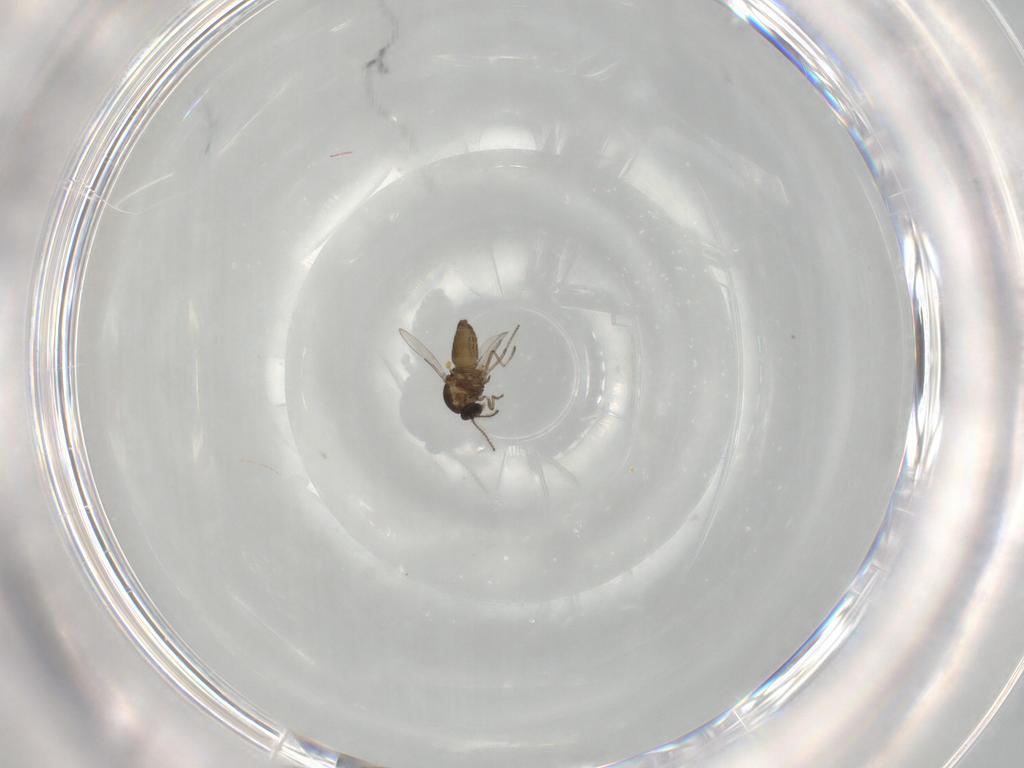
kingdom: Animalia
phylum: Arthropoda
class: Insecta
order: Diptera
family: Ceratopogonidae
